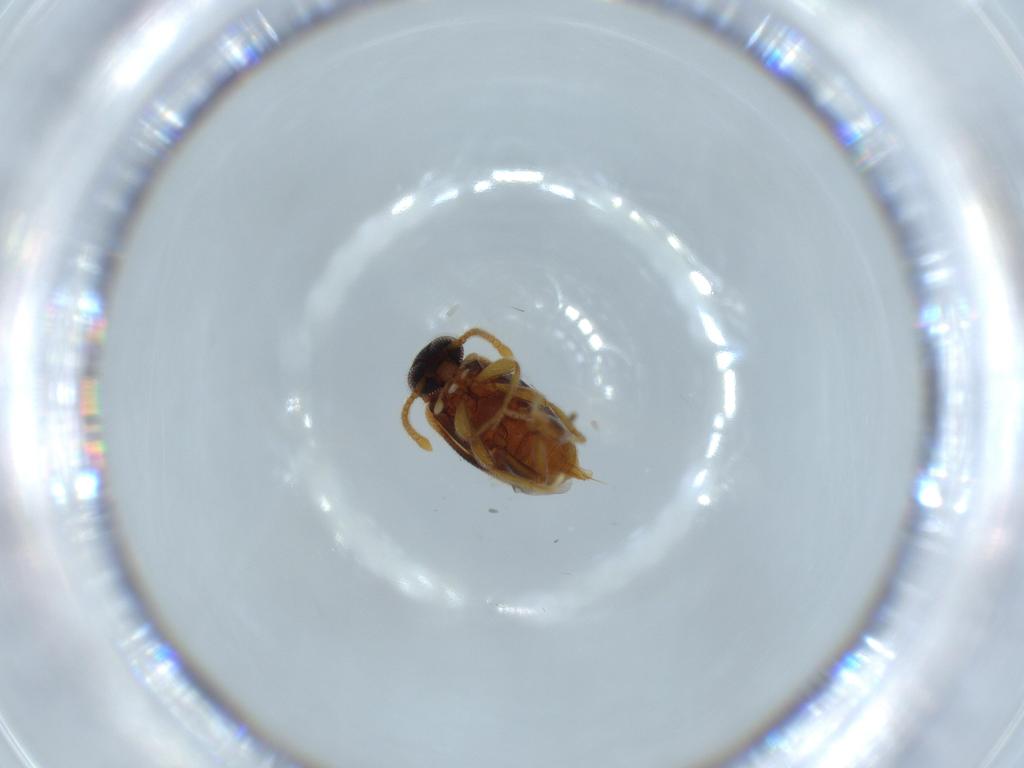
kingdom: Animalia
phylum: Arthropoda
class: Insecta
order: Coleoptera
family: Aderidae
